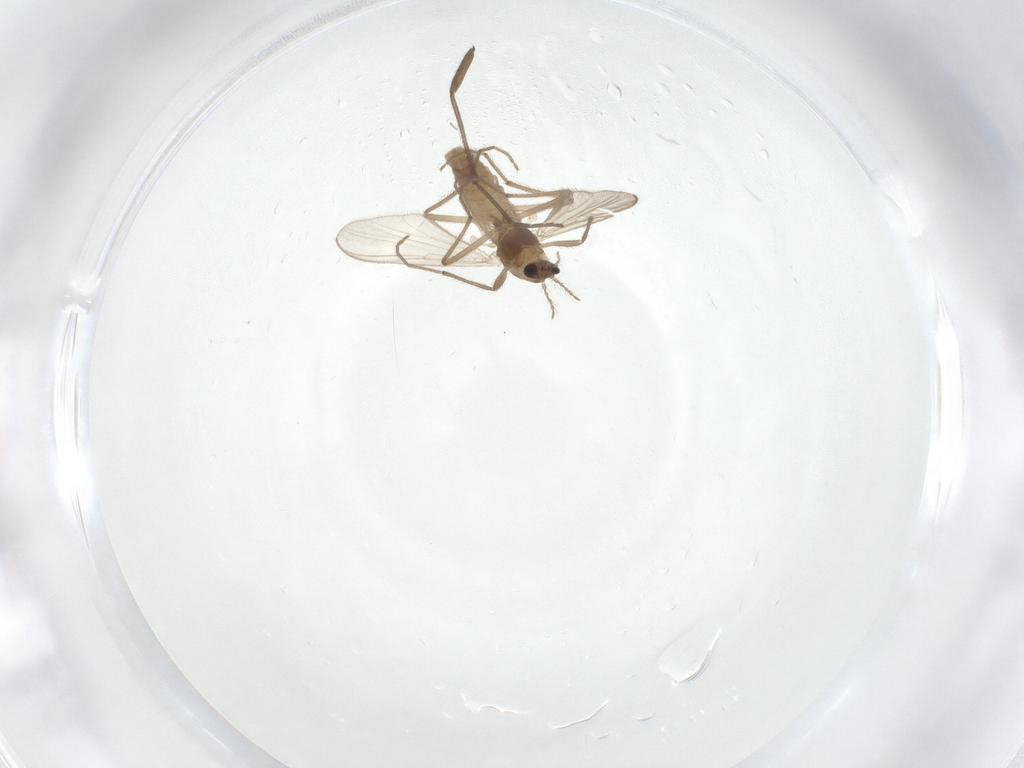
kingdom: Animalia
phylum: Arthropoda
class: Insecta
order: Diptera
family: Chironomidae
